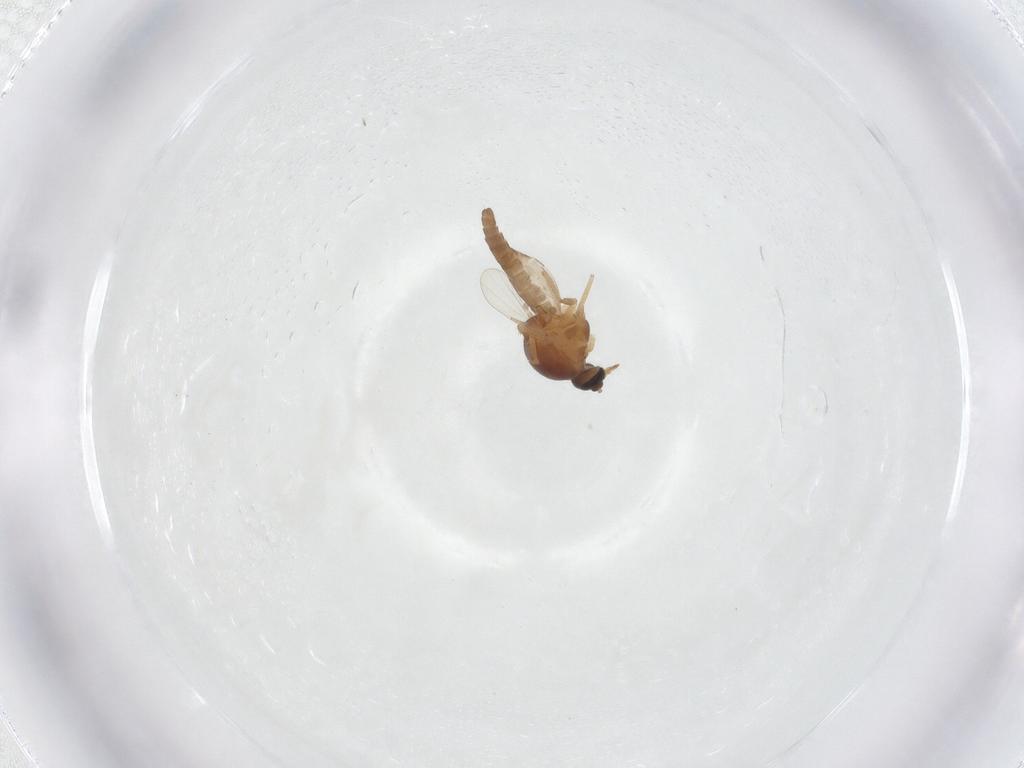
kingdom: Animalia
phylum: Arthropoda
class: Insecta
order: Diptera
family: Ceratopogonidae
